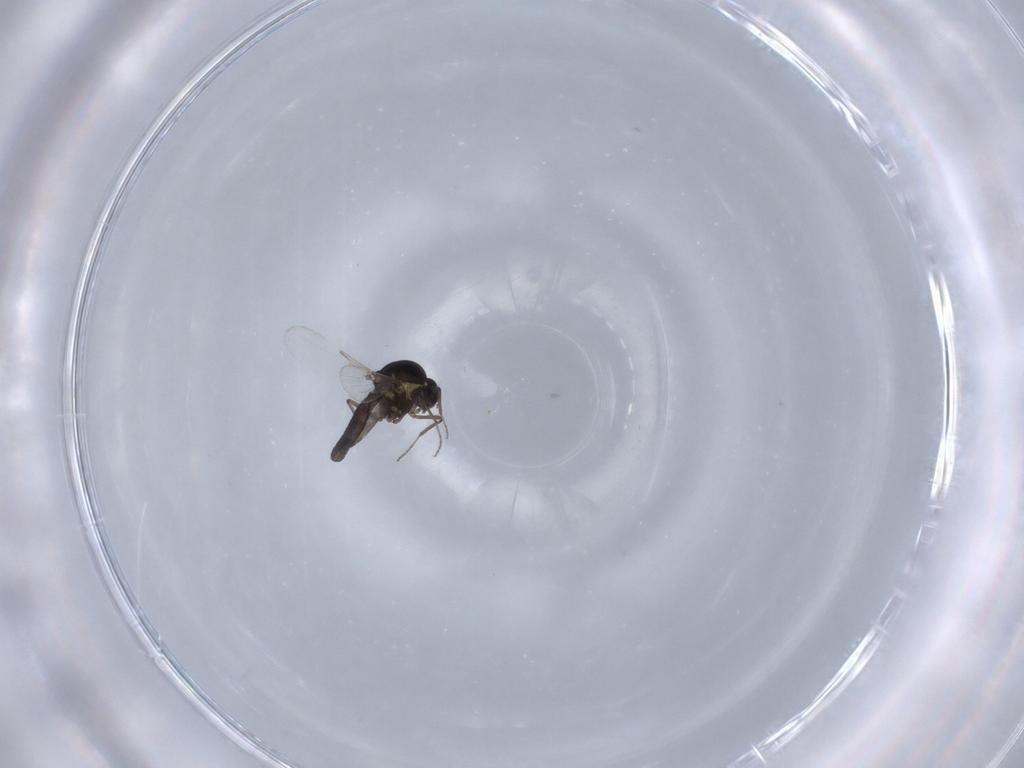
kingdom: Animalia
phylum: Arthropoda
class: Insecta
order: Diptera
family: Ceratopogonidae
